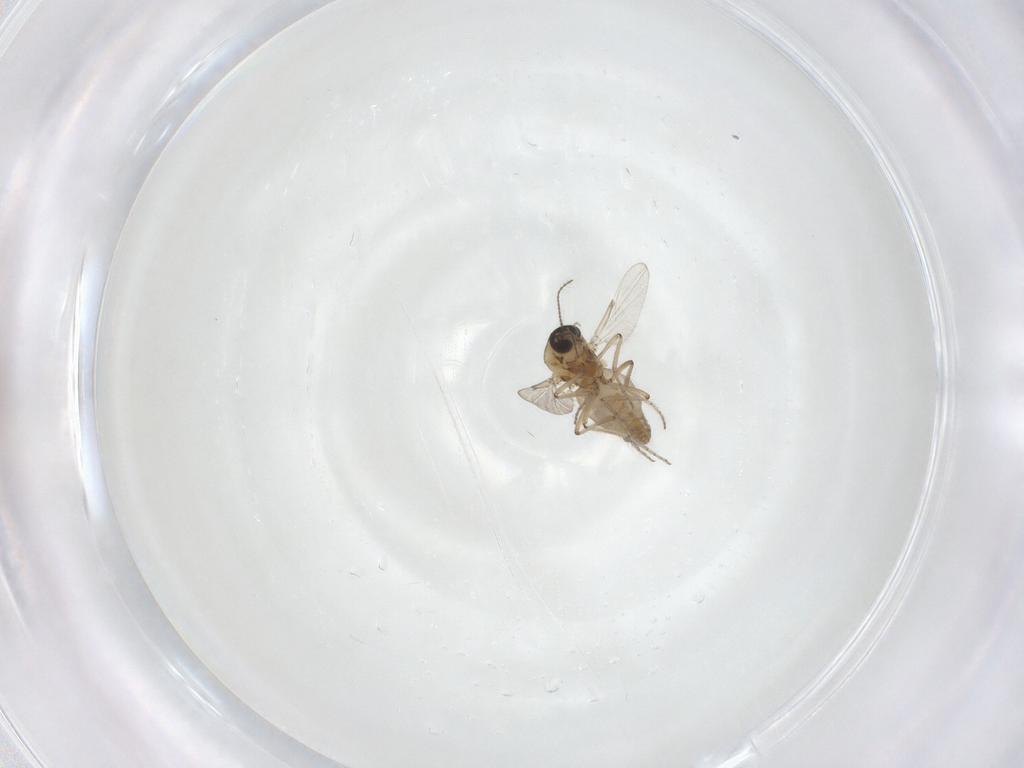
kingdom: Animalia
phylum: Arthropoda
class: Insecta
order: Diptera
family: Ceratopogonidae
